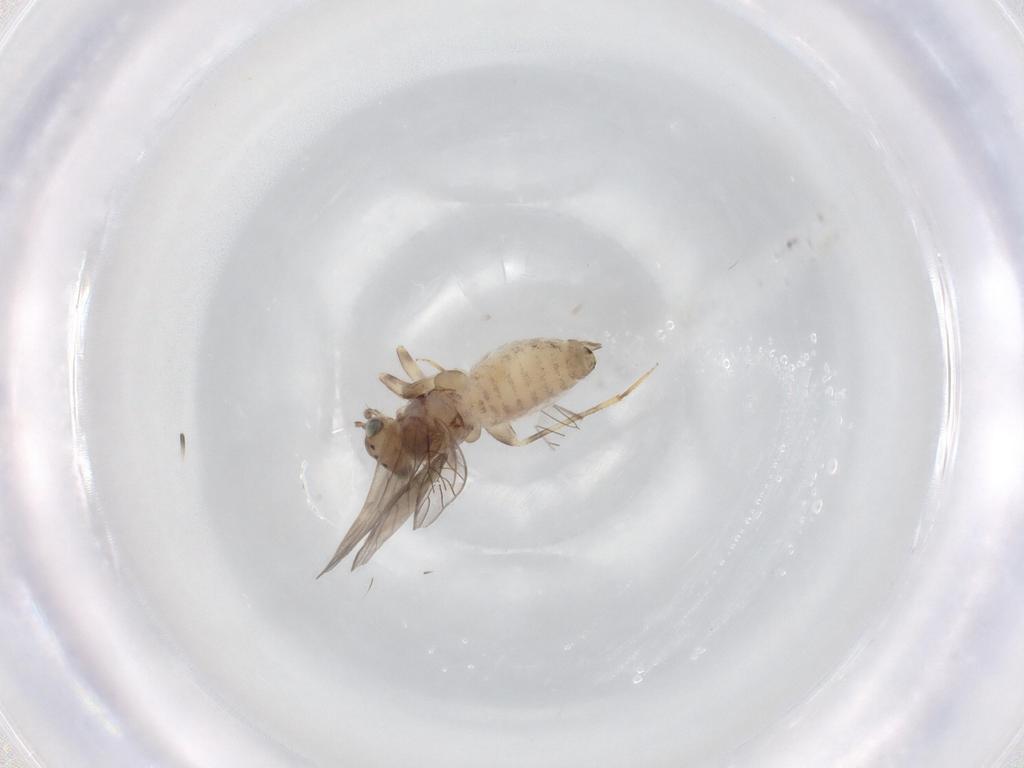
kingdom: Animalia
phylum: Arthropoda
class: Insecta
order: Psocodea
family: Lepidopsocidae
